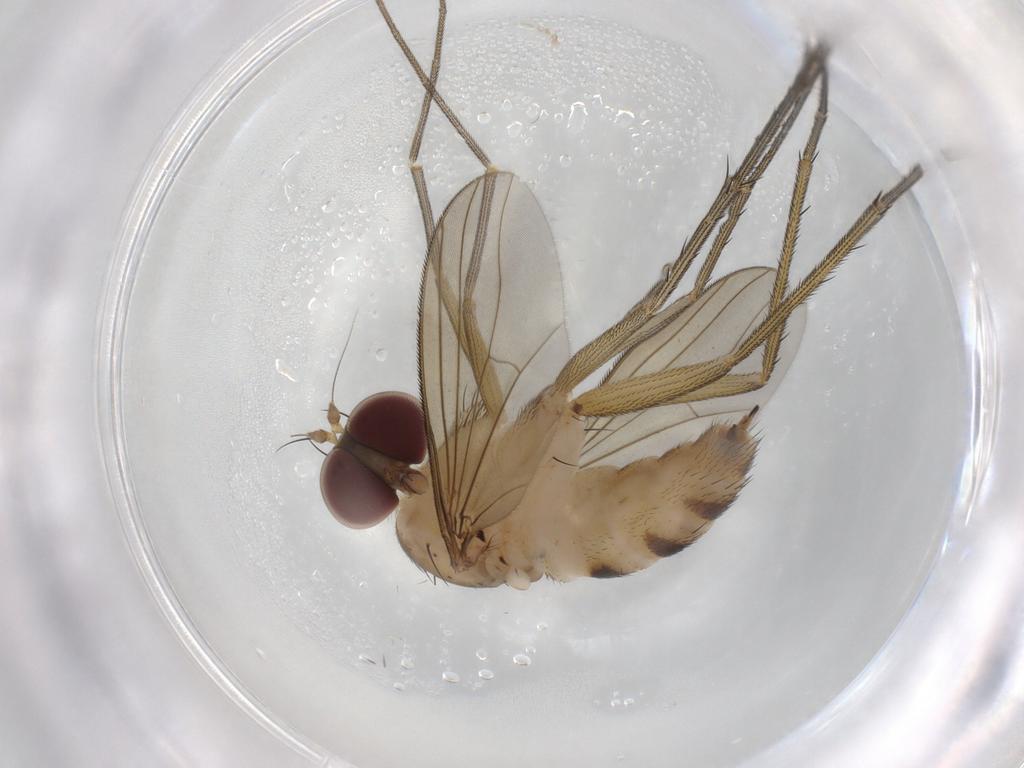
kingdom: Animalia
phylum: Arthropoda
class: Insecta
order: Diptera
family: Dolichopodidae
